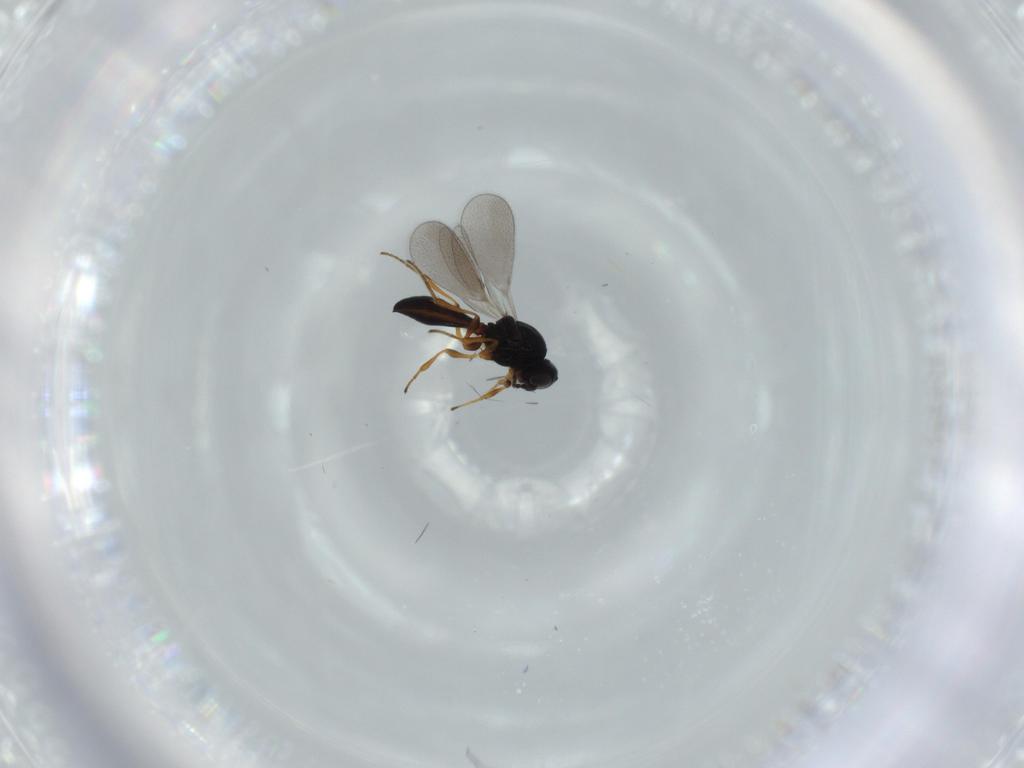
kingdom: Animalia
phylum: Arthropoda
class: Insecta
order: Hymenoptera
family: Platygastridae
